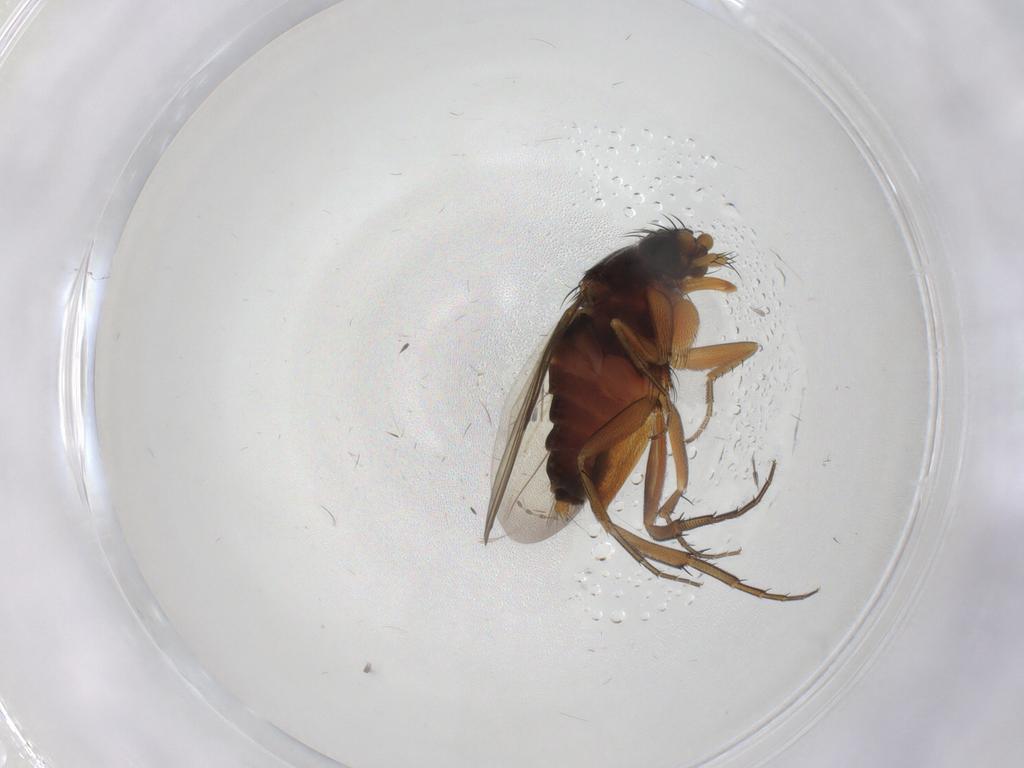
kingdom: Animalia
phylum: Arthropoda
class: Insecta
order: Diptera
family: Phoridae
